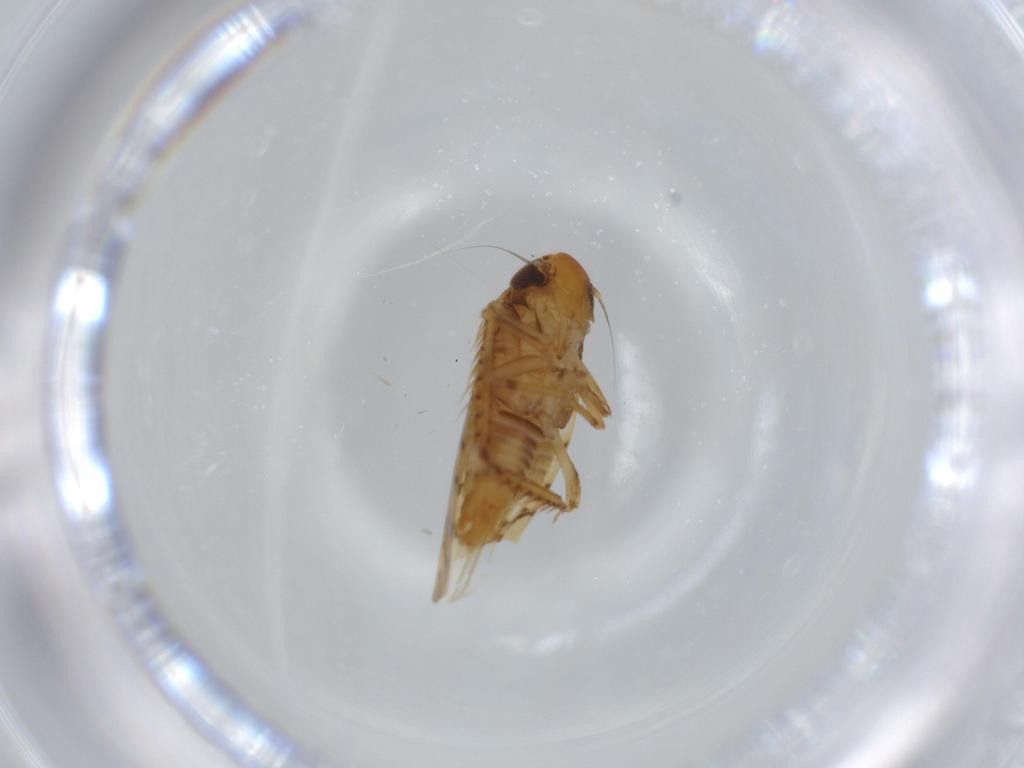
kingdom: Animalia
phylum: Arthropoda
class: Insecta
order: Hemiptera
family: Cicadellidae
